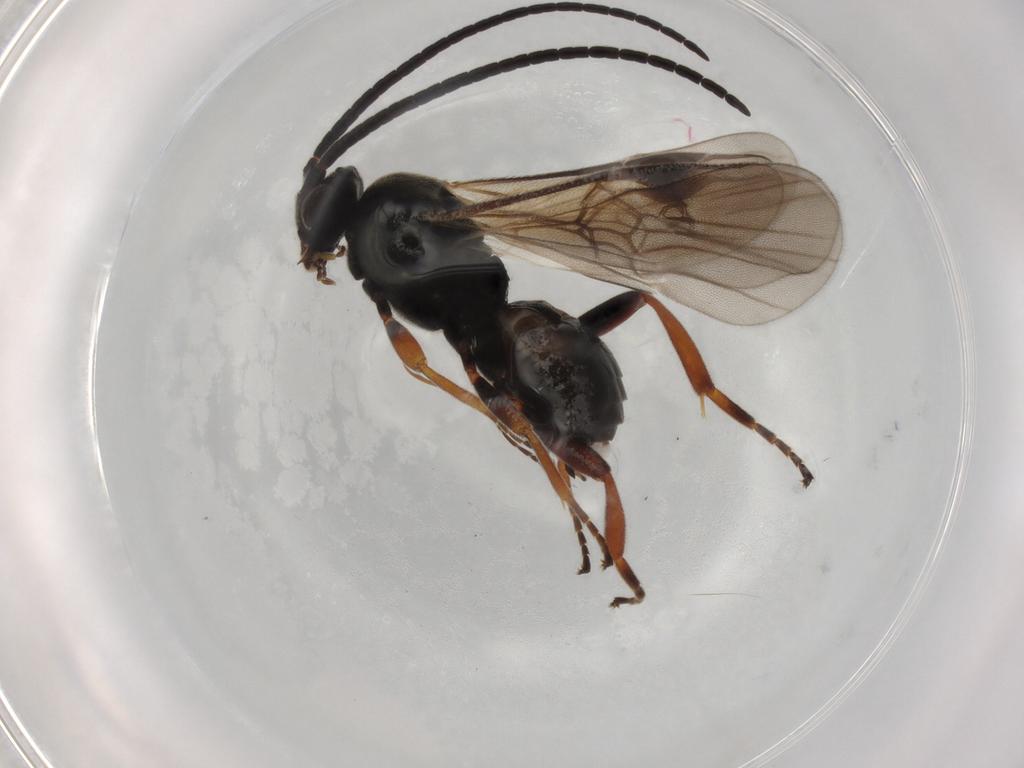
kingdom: Animalia
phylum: Arthropoda
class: Insecta
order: Hymenoptera
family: Braconidae
